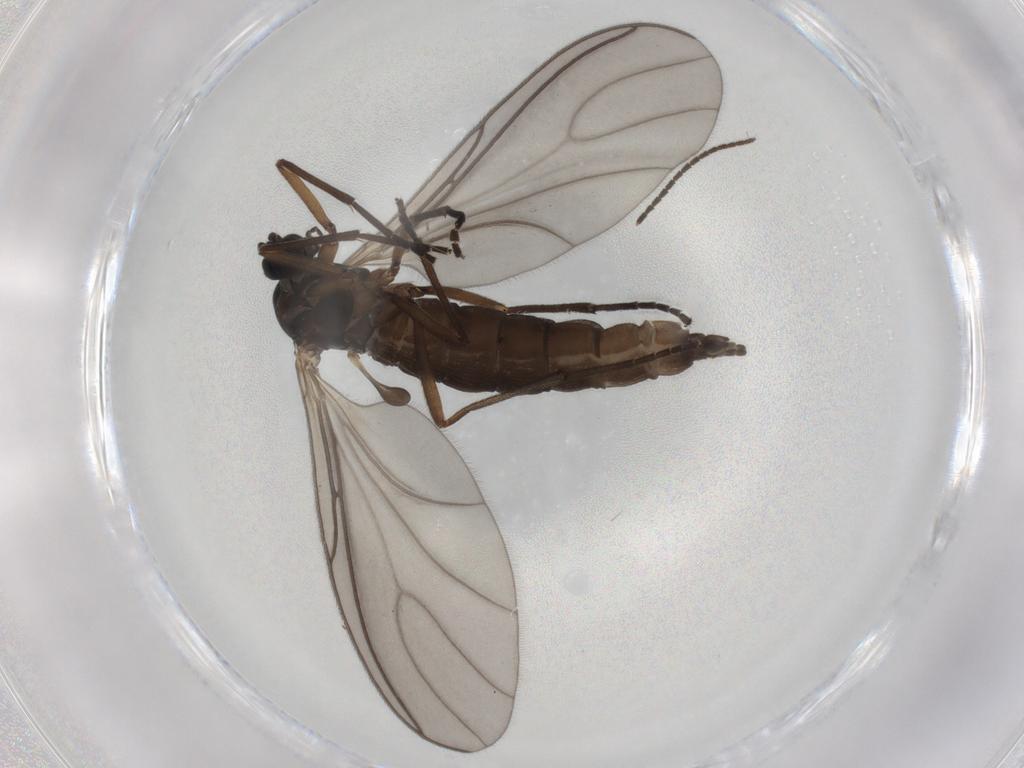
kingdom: Animalia
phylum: Arthropoda
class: Insecta
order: Diptera
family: Sciaridae
